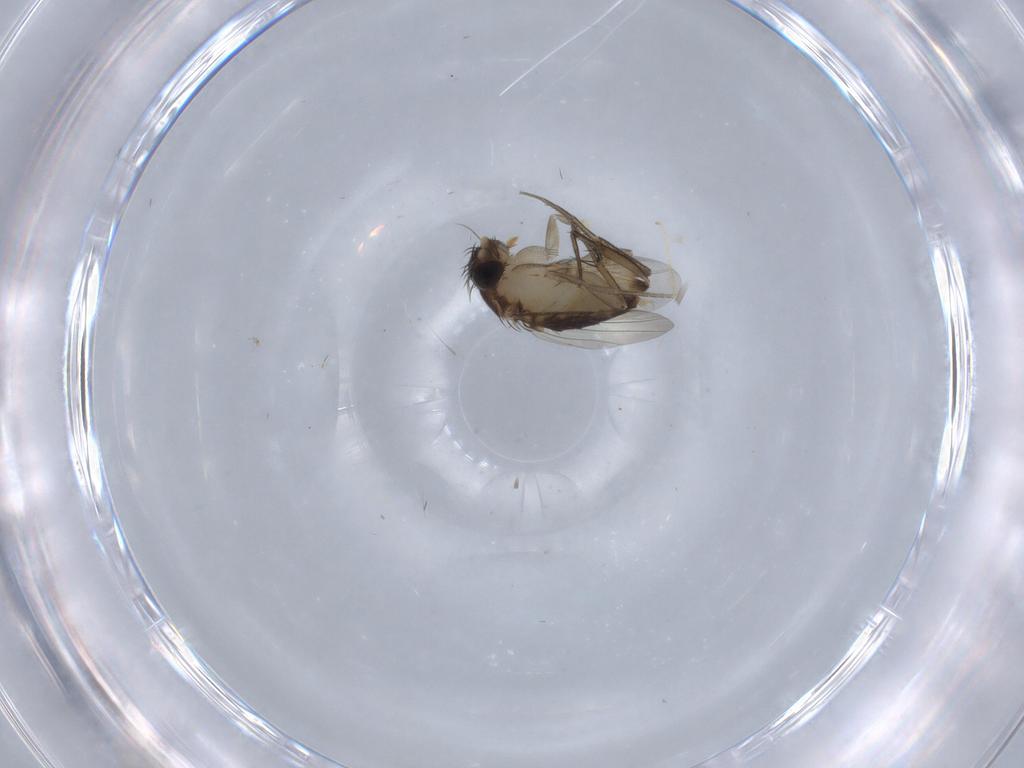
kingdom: Animalia
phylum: Arthropoda
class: Insecta
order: Diptera
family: Phoridae
